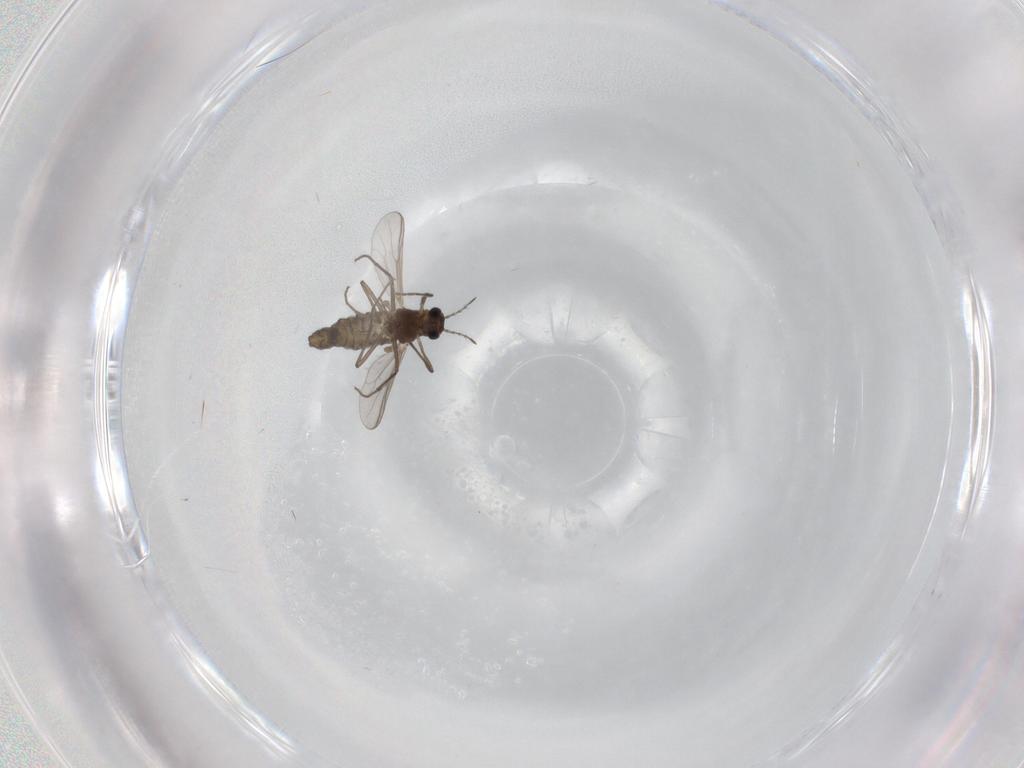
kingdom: Animalia
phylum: Arthropoda
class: Insecta
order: Diptera
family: Chironomidae
